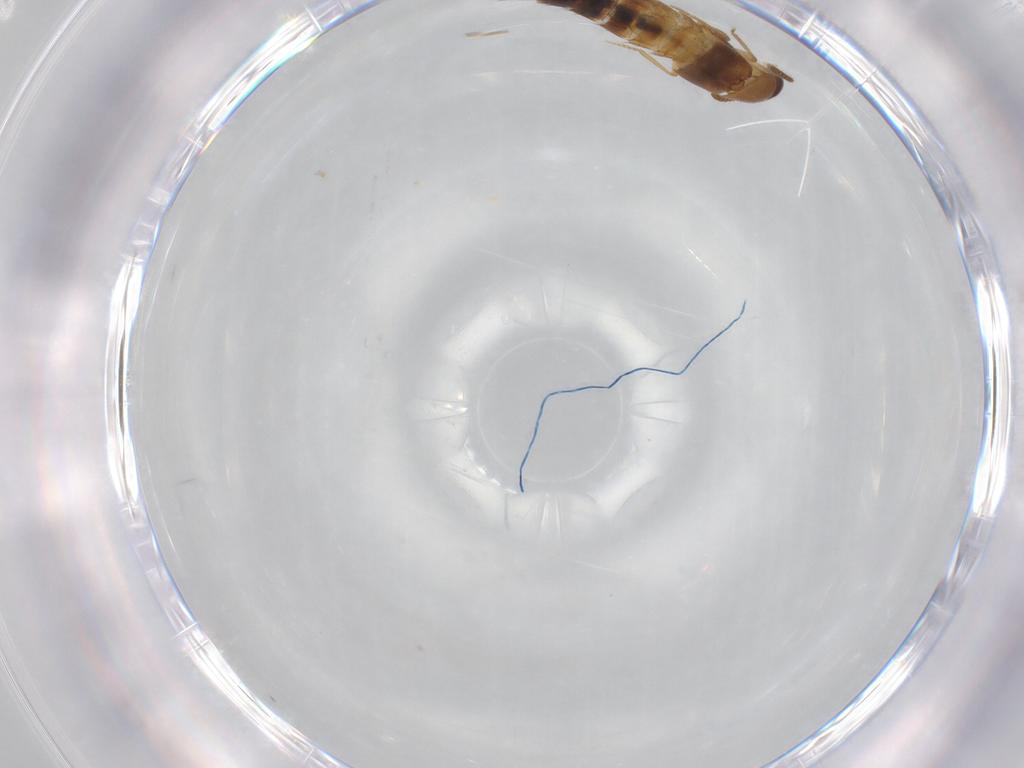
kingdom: Animalia
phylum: Arthropoda
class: Insecta
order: Coleoptera
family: Staphylinidae
